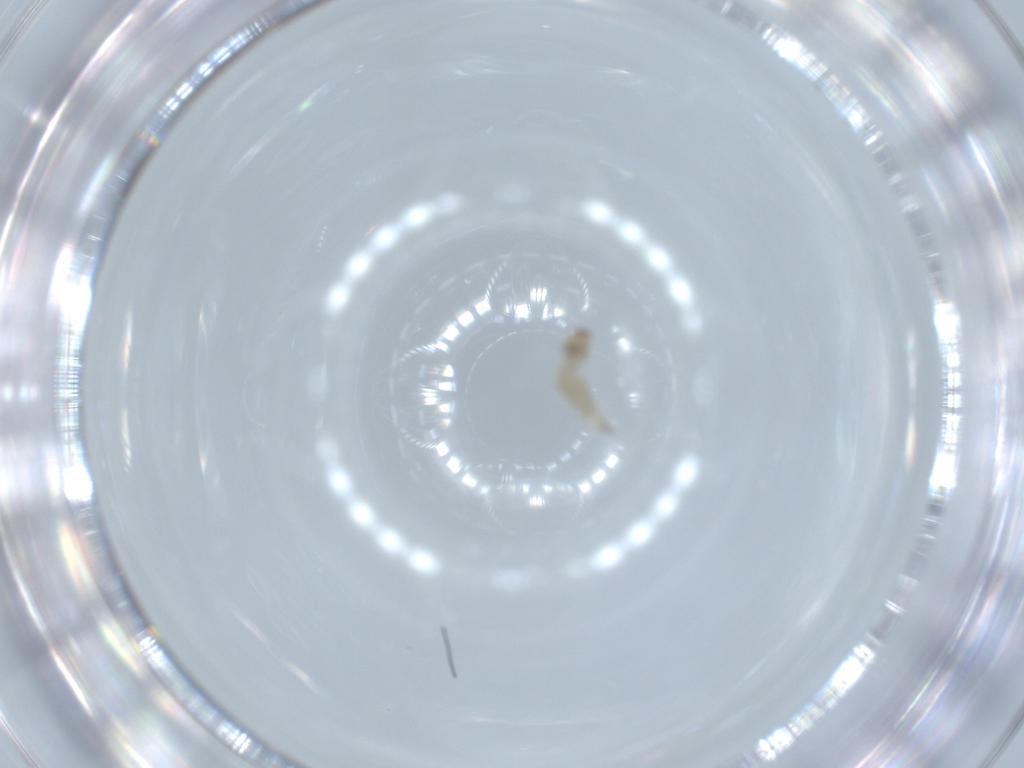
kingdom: Animalia
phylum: Arthropoda
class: Insecta
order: Diptera
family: Cecidomyiidae
